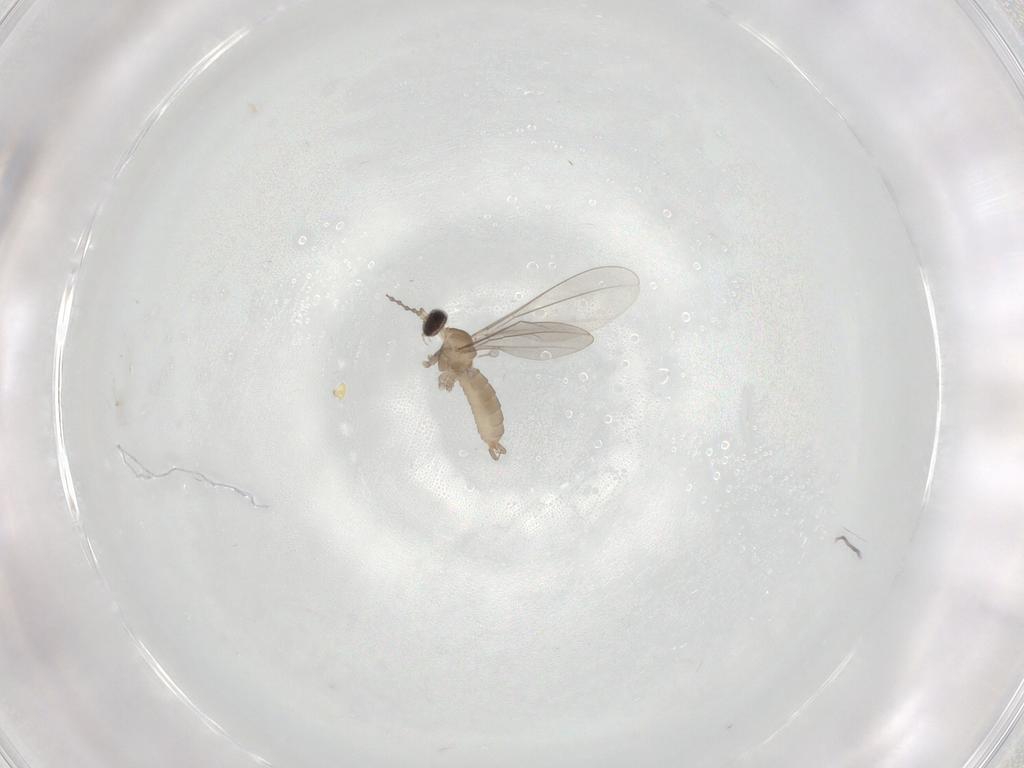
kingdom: Animalia
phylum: Arthropoda
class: Insecta
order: Diptera
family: Cecidomyiidae
